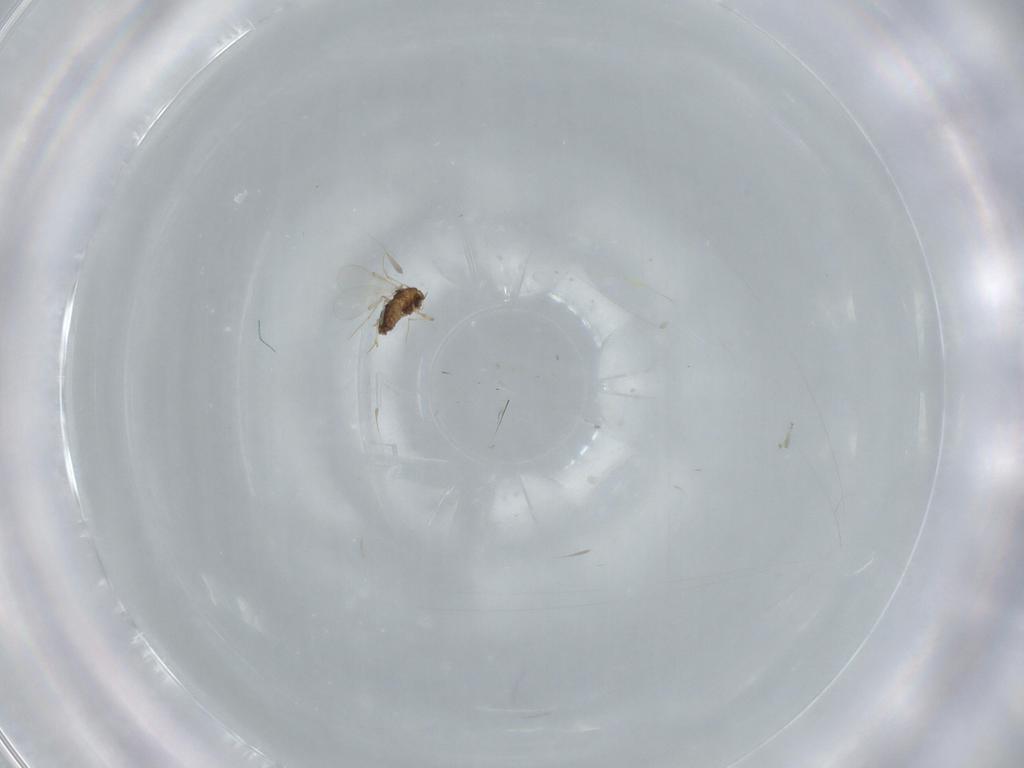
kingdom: Animalia
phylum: Arthropoda
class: Insecta
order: Diptera
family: Chironomidae
